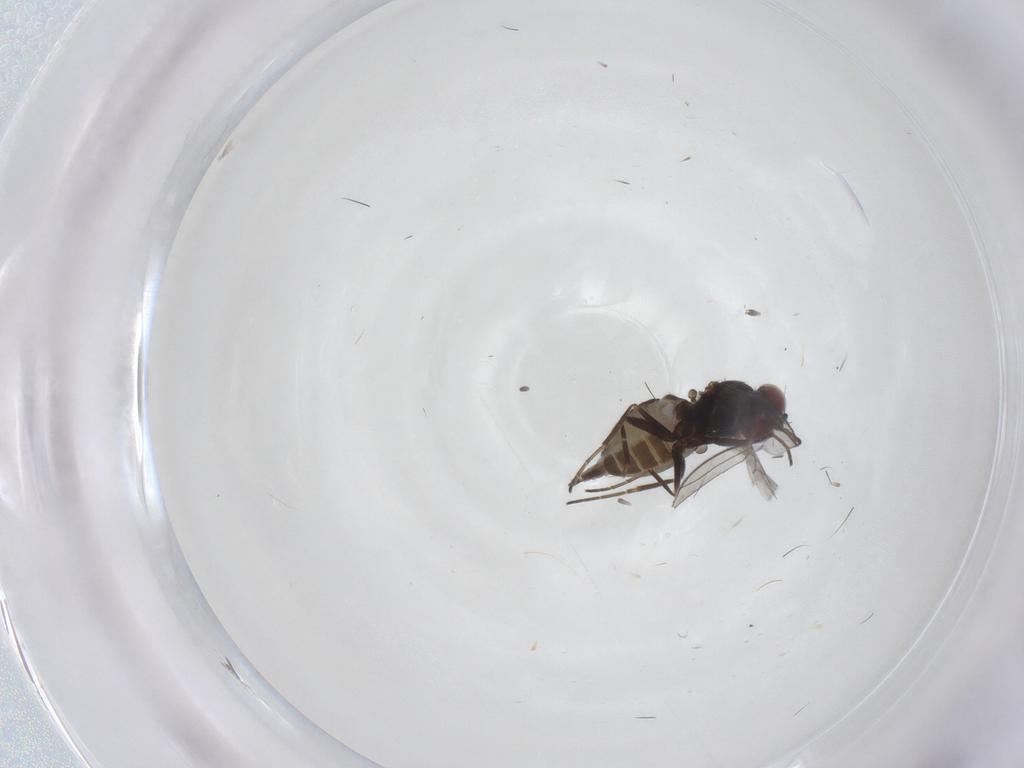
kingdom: Animalia
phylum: Arthropoda
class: Insecta
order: Diptera
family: Dolichopodidae
